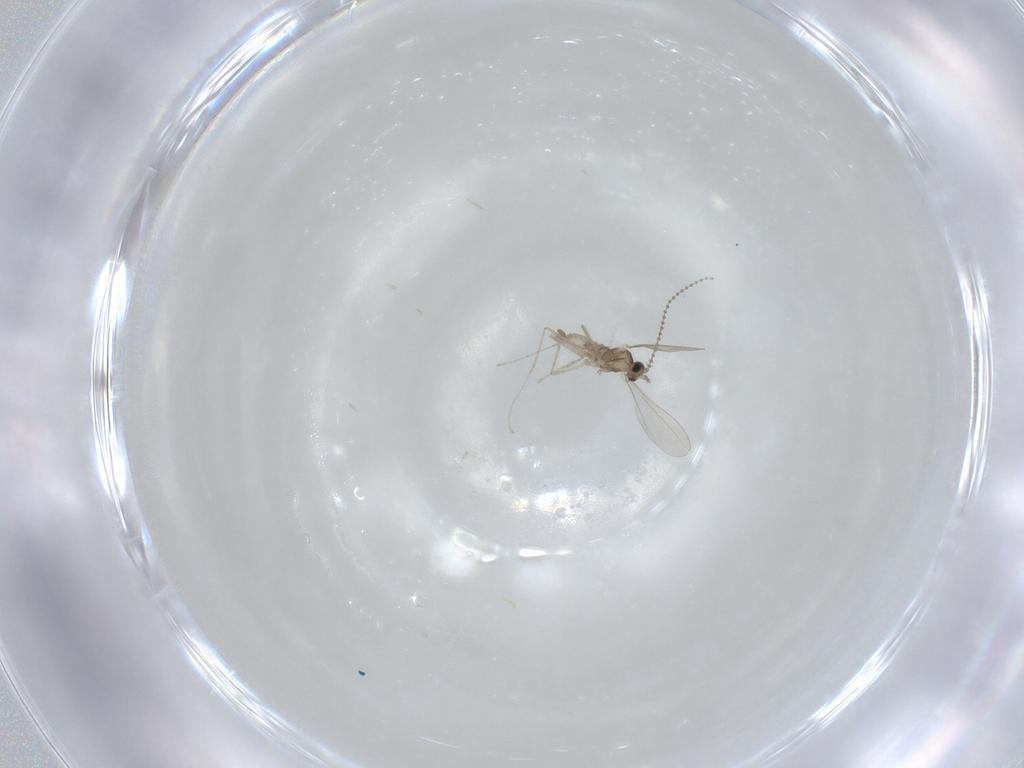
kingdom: Animalia
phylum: Arthropoda
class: Insecta
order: Diptera
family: Cecidomyiidae
